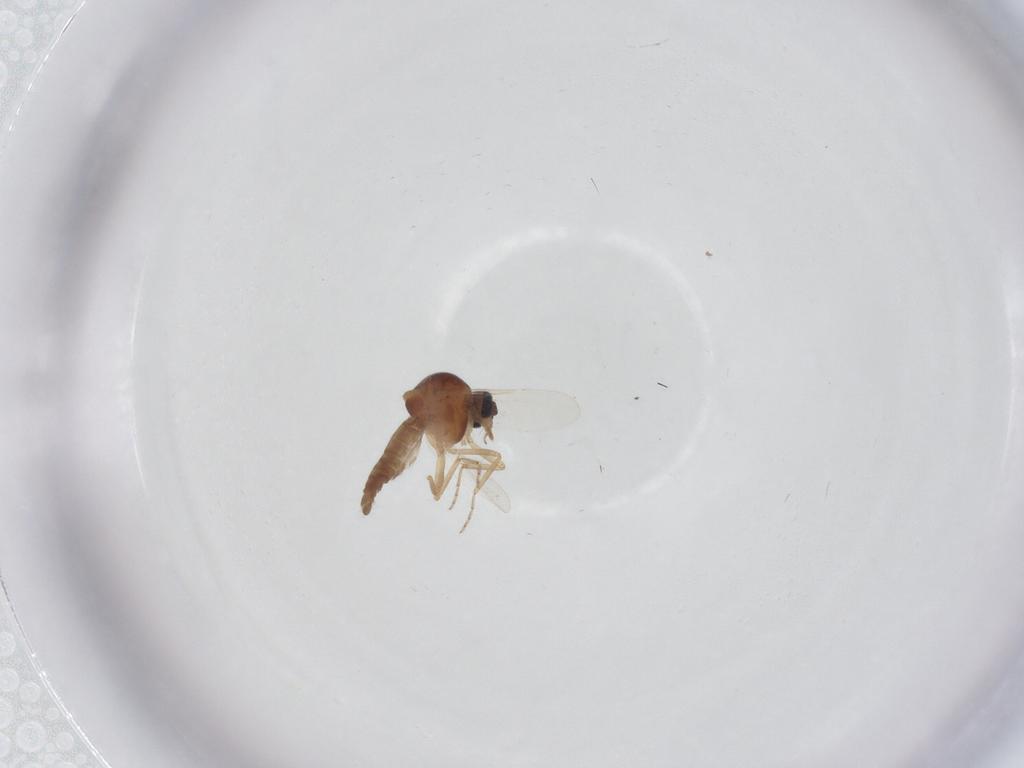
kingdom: Animalia
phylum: Arthropoda
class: Insecta
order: Diptera
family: Ceratopogonidae
